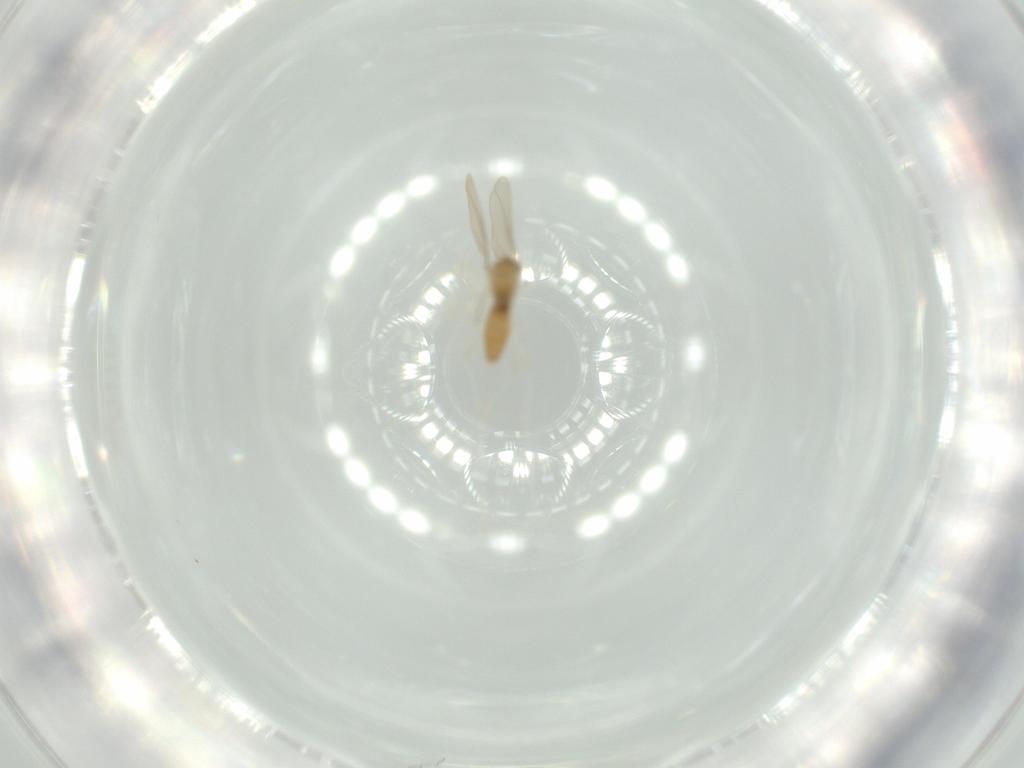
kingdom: Animalia
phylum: Arthropoda
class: Insecta
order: Diptera
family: Cecidomyiidae
